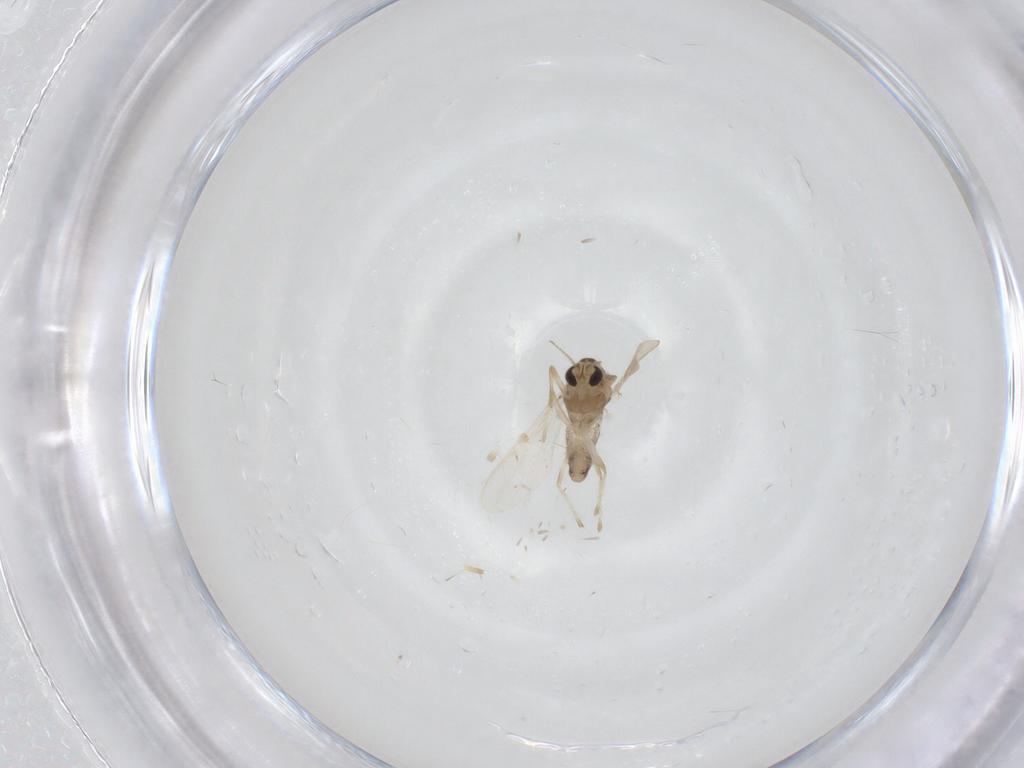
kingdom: Animalia
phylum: Arthropoda
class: Insecta
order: Diptera
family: Chironomidae
